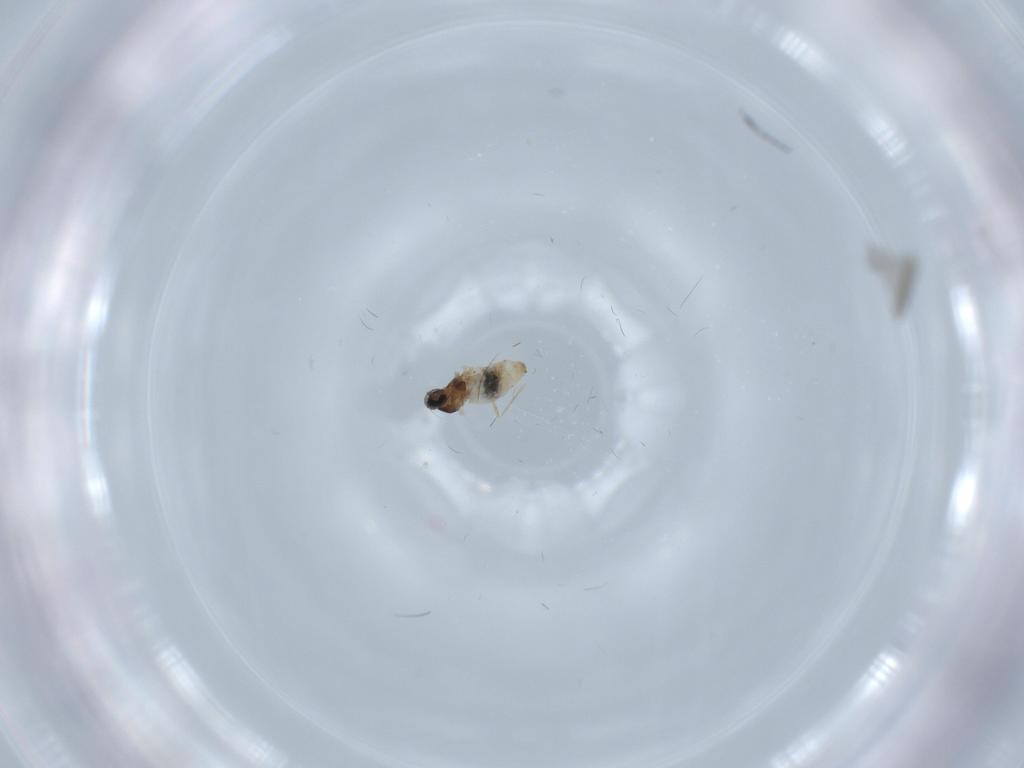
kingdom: Animalia
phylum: Arthropoda
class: Insecta
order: Diptera
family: Cecidomyiidae
